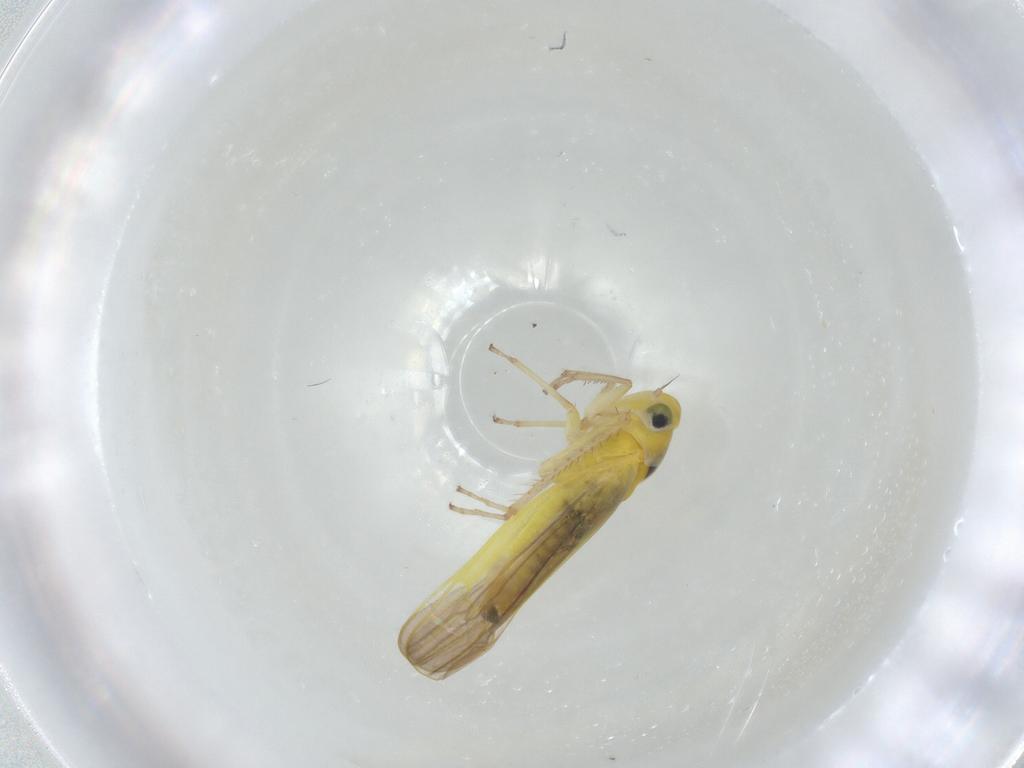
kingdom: Animalia
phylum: Arthropoda
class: Insecta
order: Hemiptera
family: Cicadellidae
